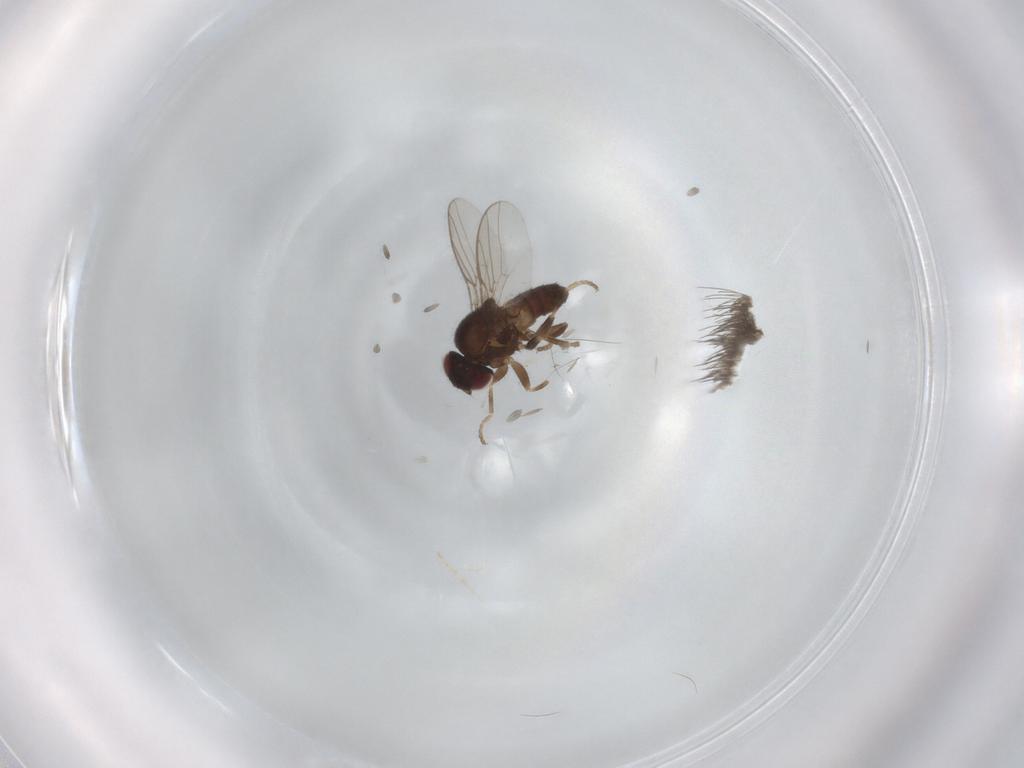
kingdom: Animalia
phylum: Arthropoda
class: Insecta
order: Diptera
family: Chloropidae
